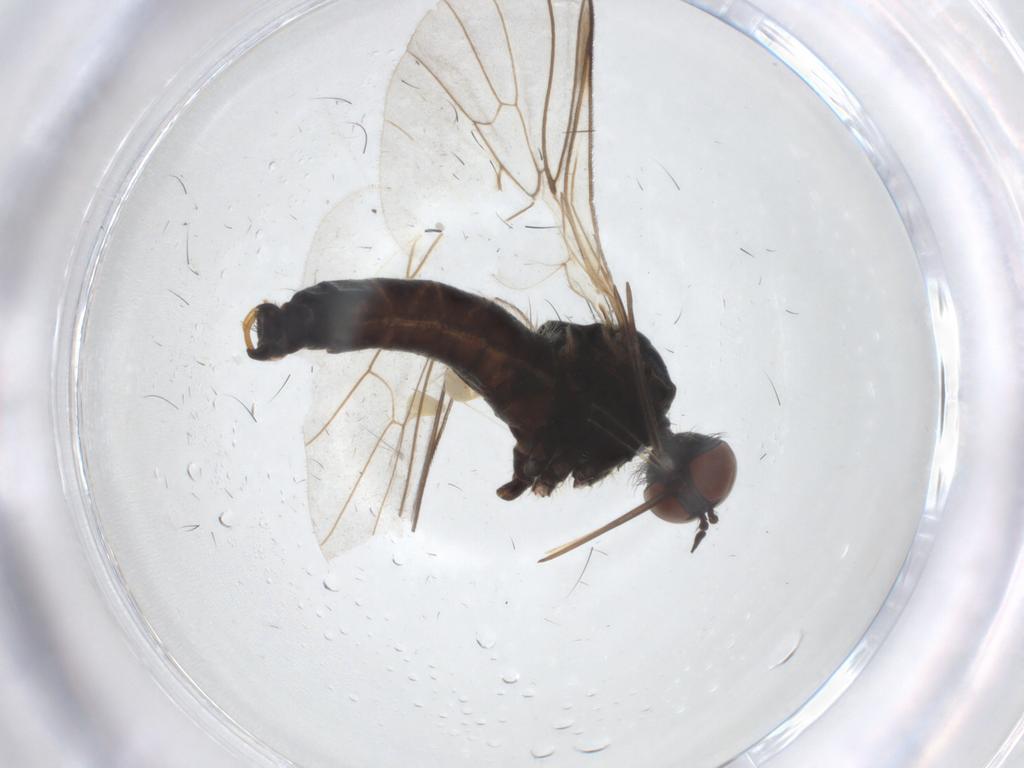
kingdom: Animalia
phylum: Arthropoda
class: Insecta
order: Diptera
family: Empididae
